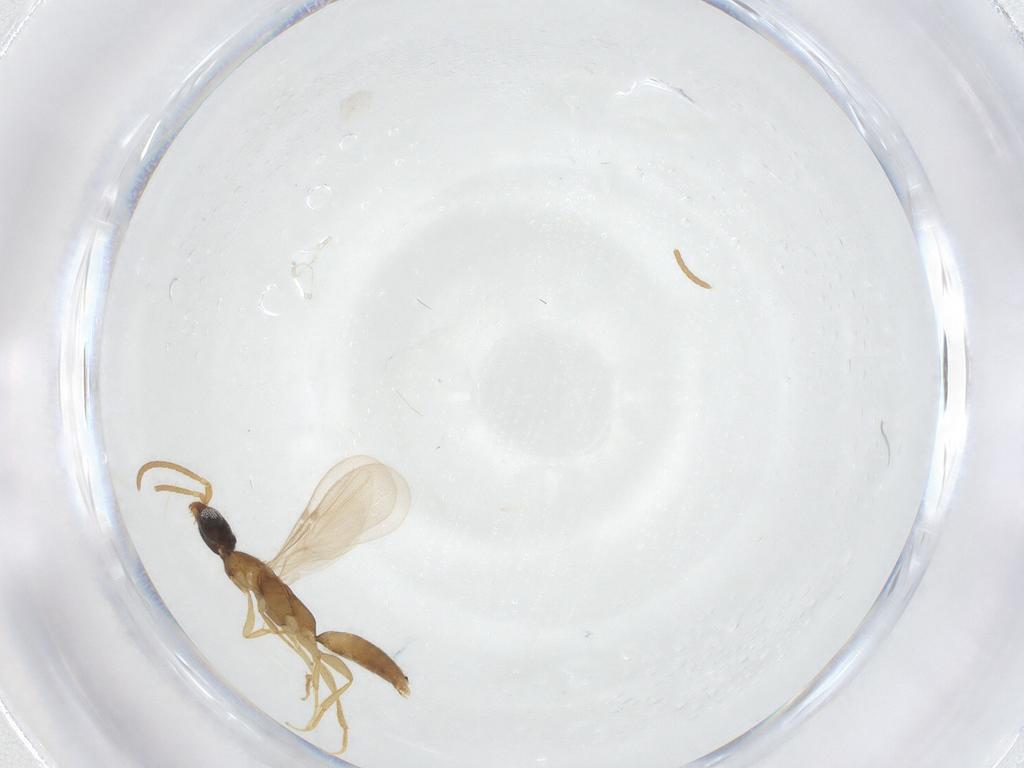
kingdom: Animalia
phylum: Arthropoda
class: Insecta
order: Hymenoptera
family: Bethylidae
